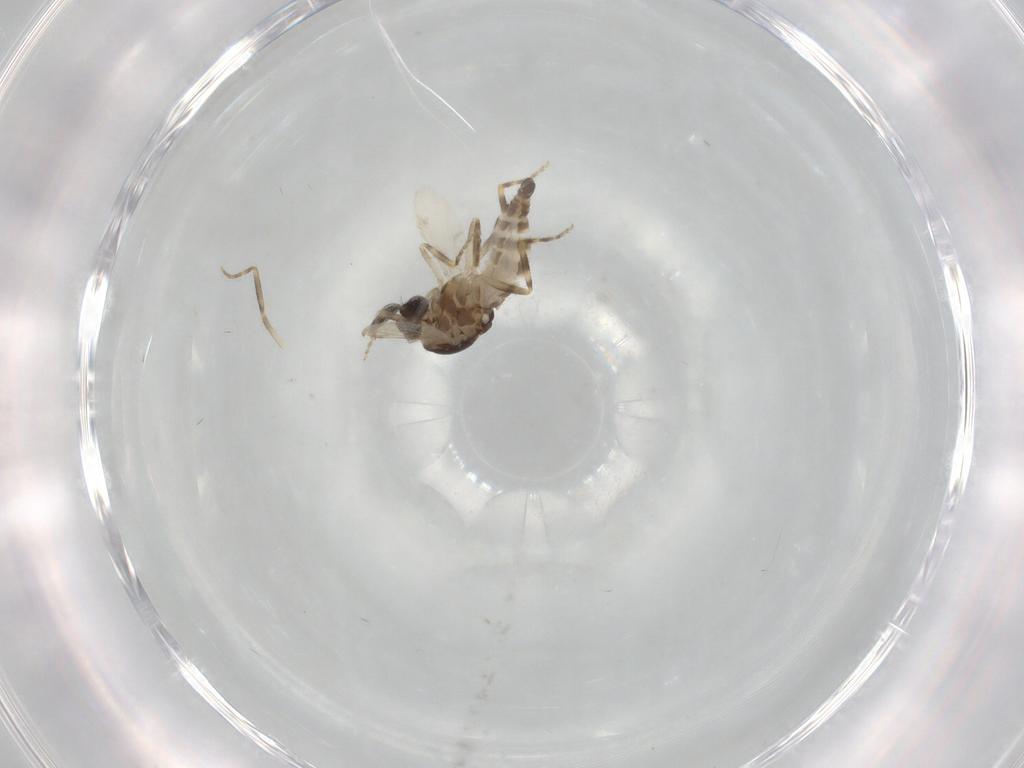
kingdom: Animalia
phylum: Arthropoda
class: Insecta
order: Diptera
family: Ceratopogonidae
